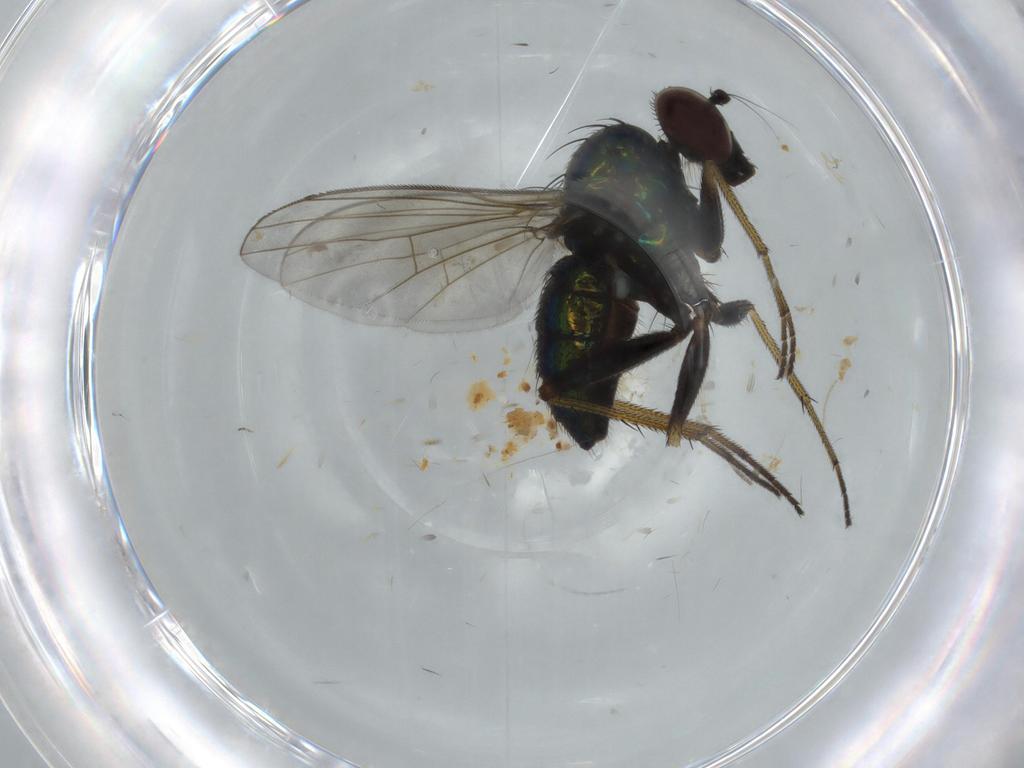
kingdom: Animalia
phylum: Arthropoda
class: Insecta
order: Diptera
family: Dolichopodidae
